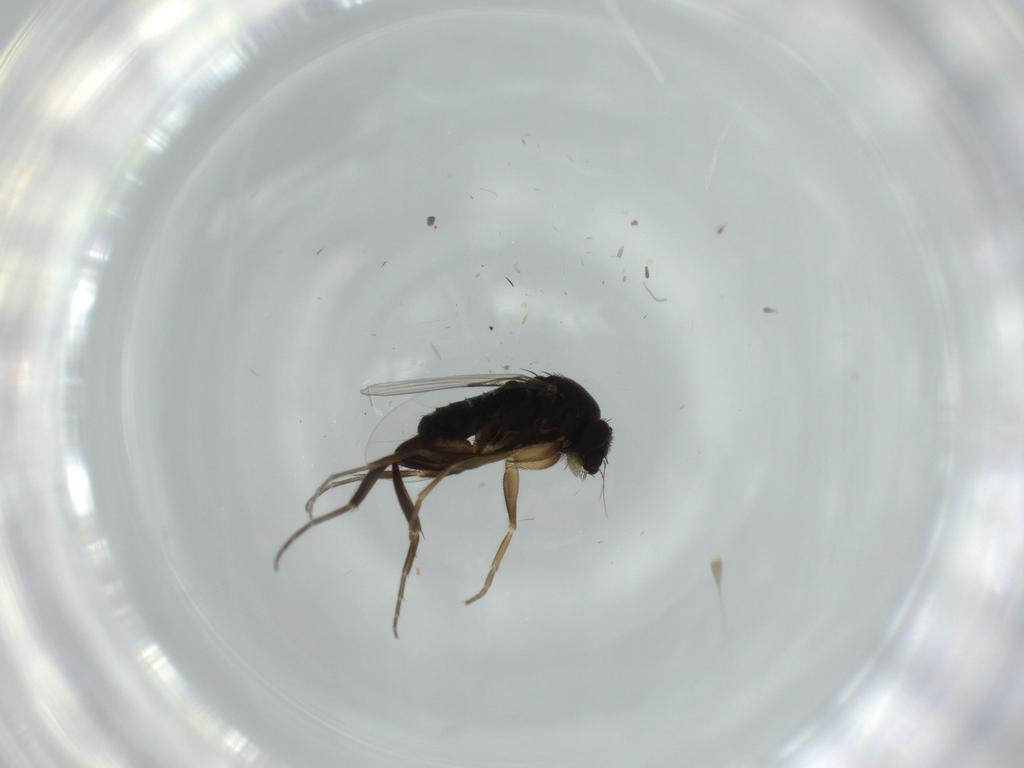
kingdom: Animalia
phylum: Arthropoda
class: Insecta
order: Diptera
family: Phoridae
